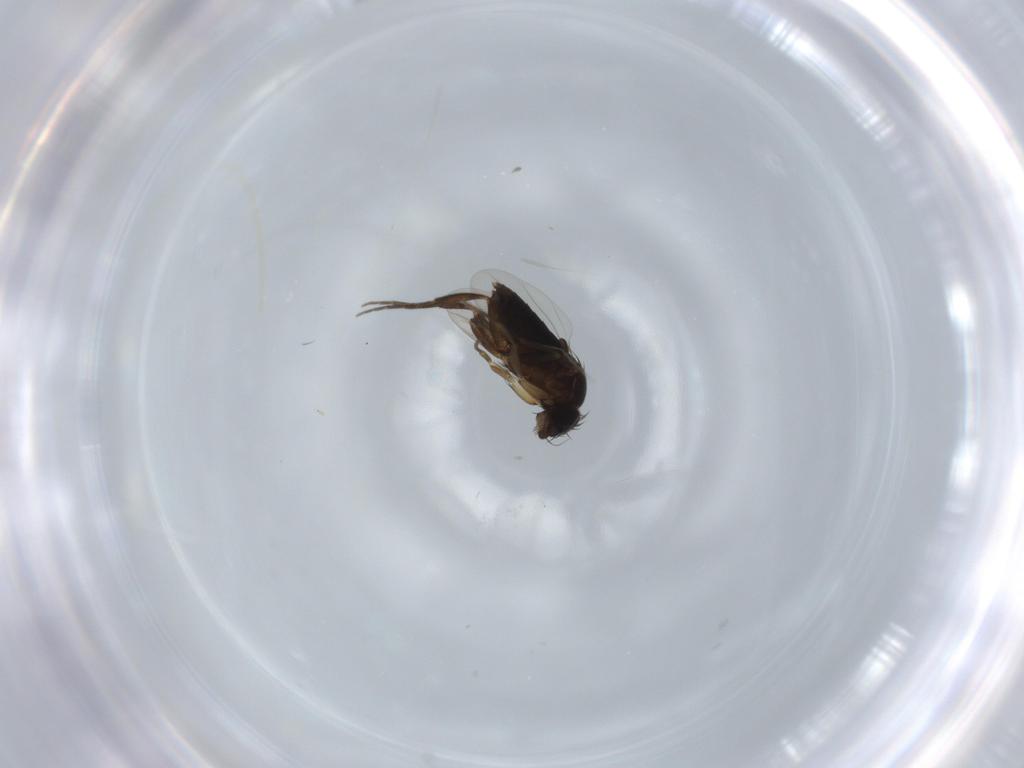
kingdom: Animalia
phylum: Arthropoda
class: Insecta
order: Diptera
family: Phoridae
